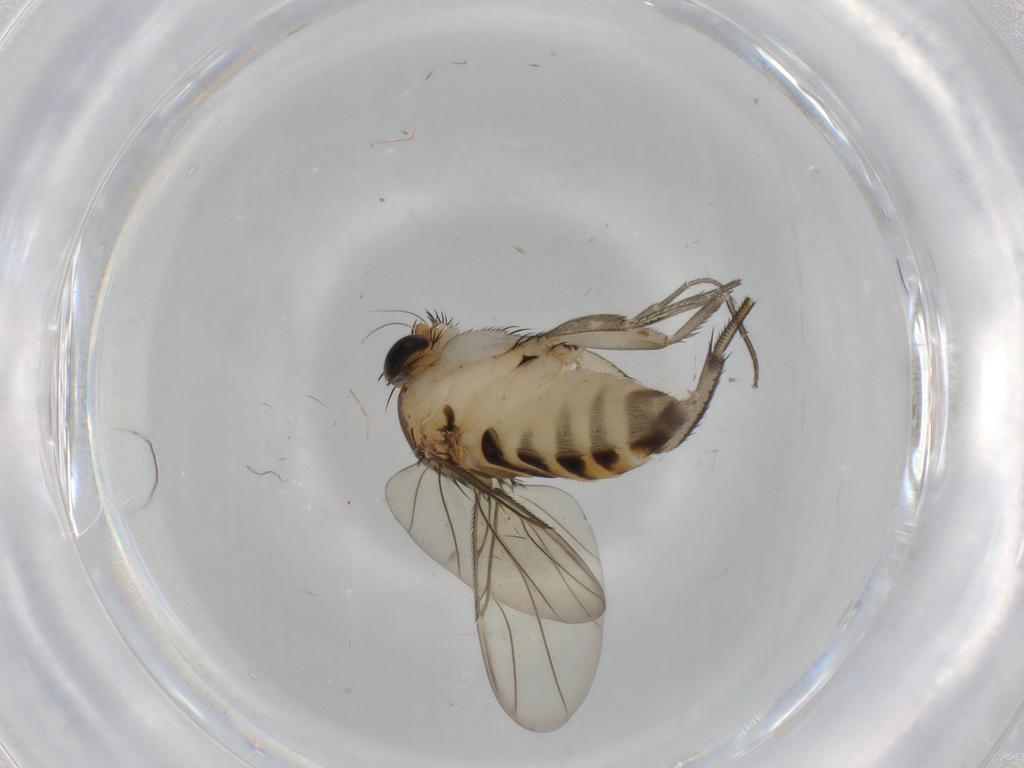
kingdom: Animalia
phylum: Arthropoda
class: Insecta
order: Diptera
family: Phoridae
